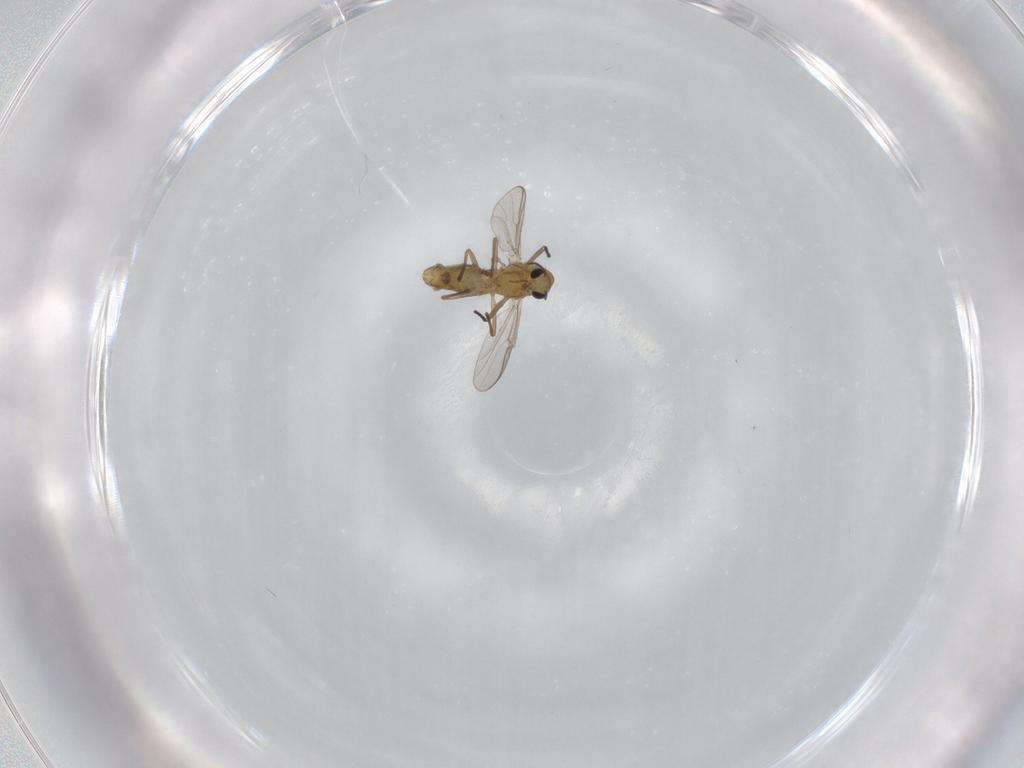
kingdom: Animalia
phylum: Arthropoda
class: Insecta
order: Diptera
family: Chironomidae
